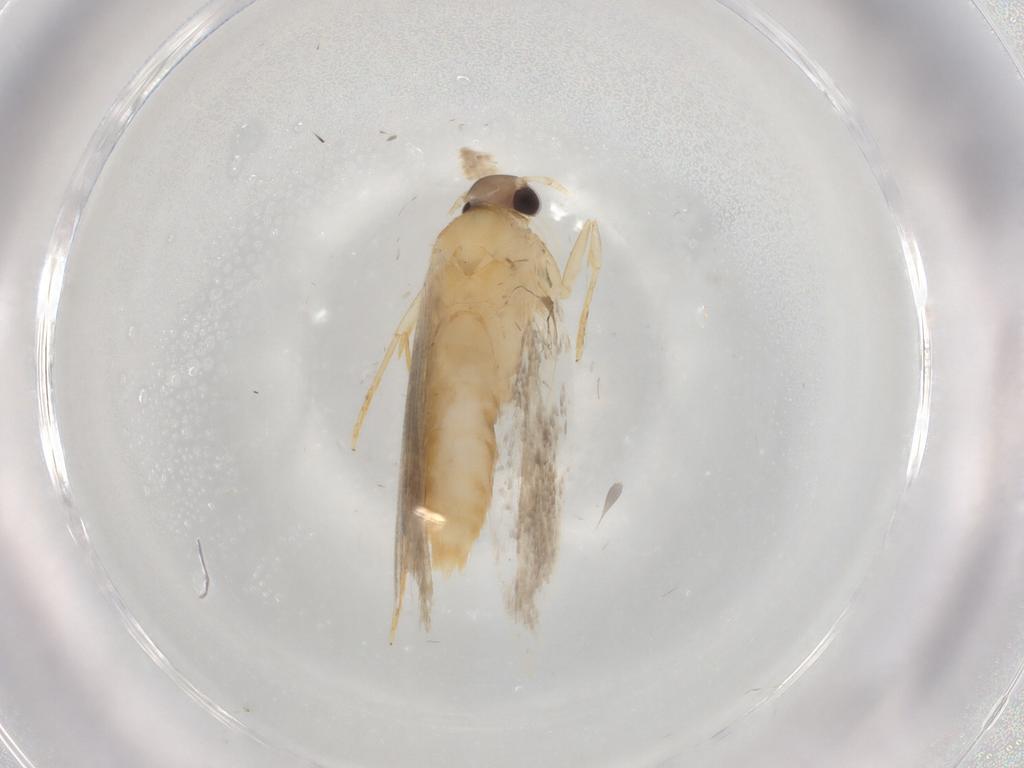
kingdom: Animalia
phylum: Arthropoda
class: Insecta
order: Lepidoptera
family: Autostichidae
